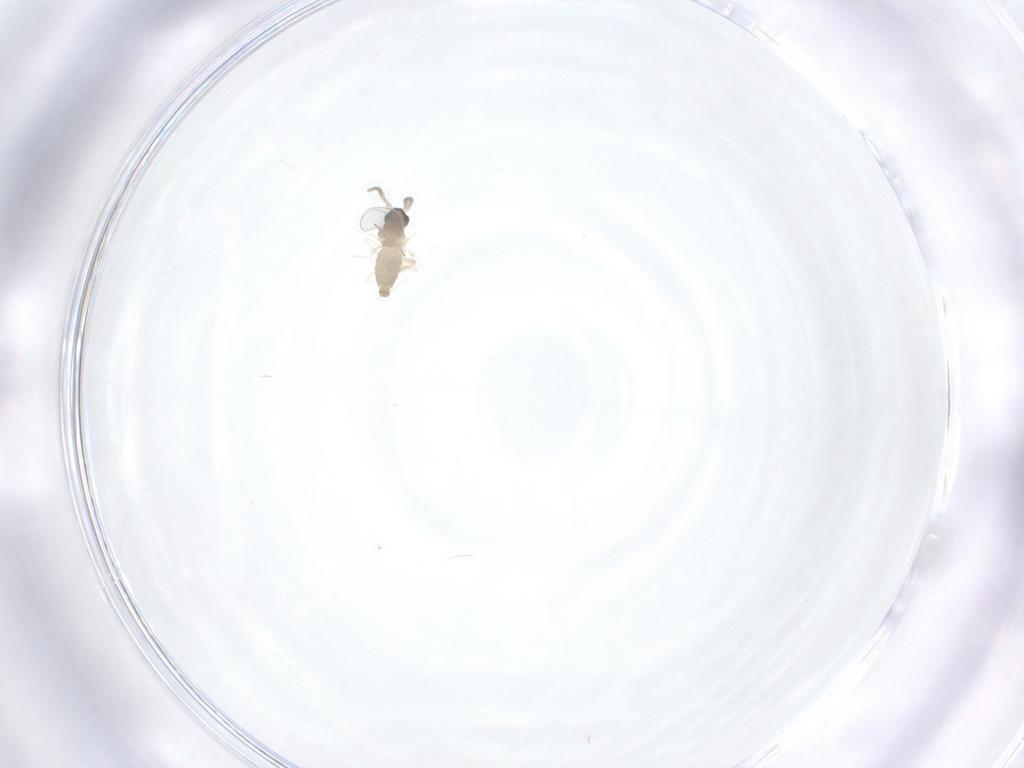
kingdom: Animalia
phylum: Arthropoda
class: Insecta
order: Diptera
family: Cecidomyiidae
